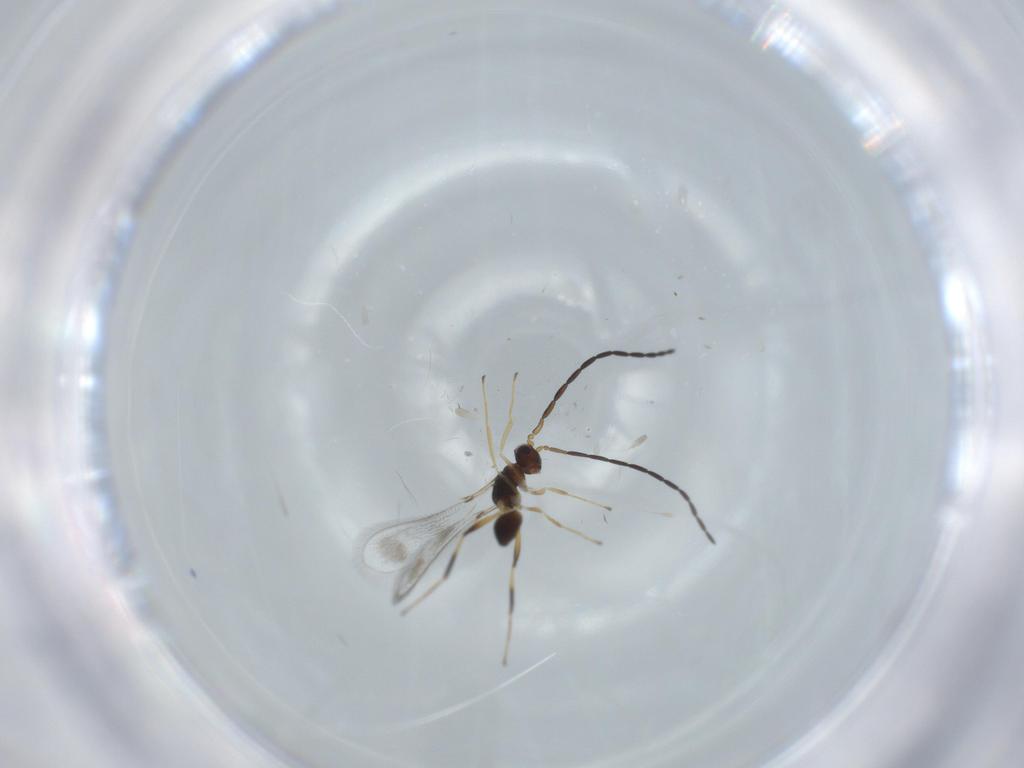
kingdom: Animalia
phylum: Arthropoda
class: Insecta
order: Hymenoptera
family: Mymaridae
